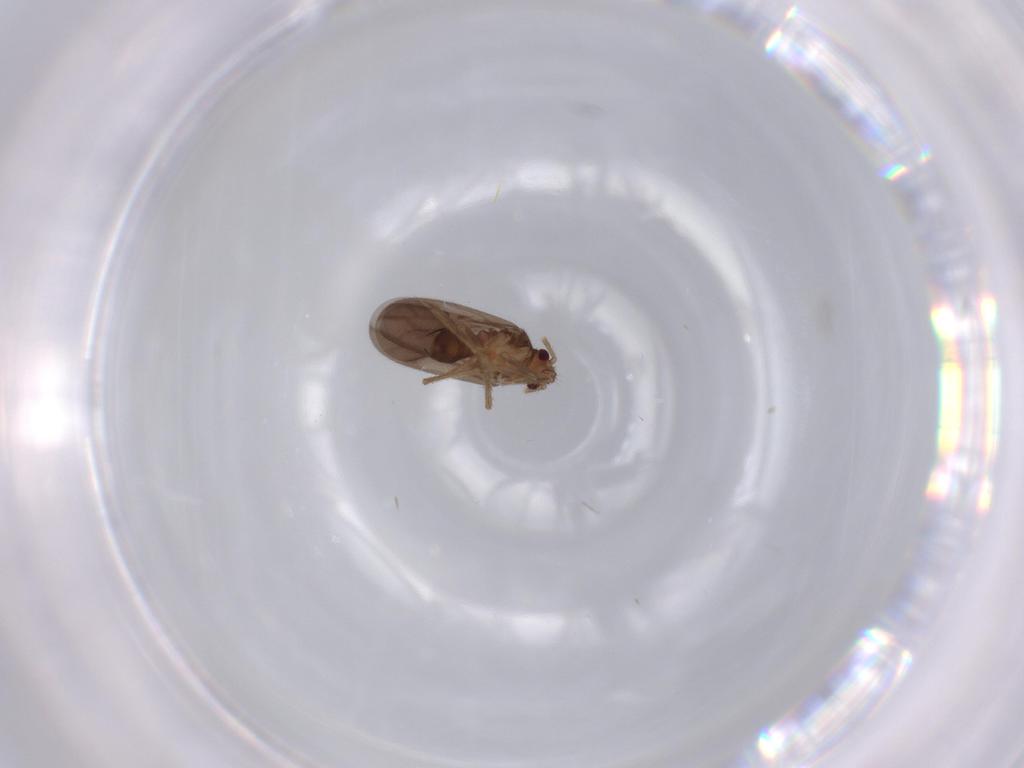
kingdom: Animalia
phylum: Arthropoda
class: Insecta
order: Hemiptera
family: Ceratocombidae
